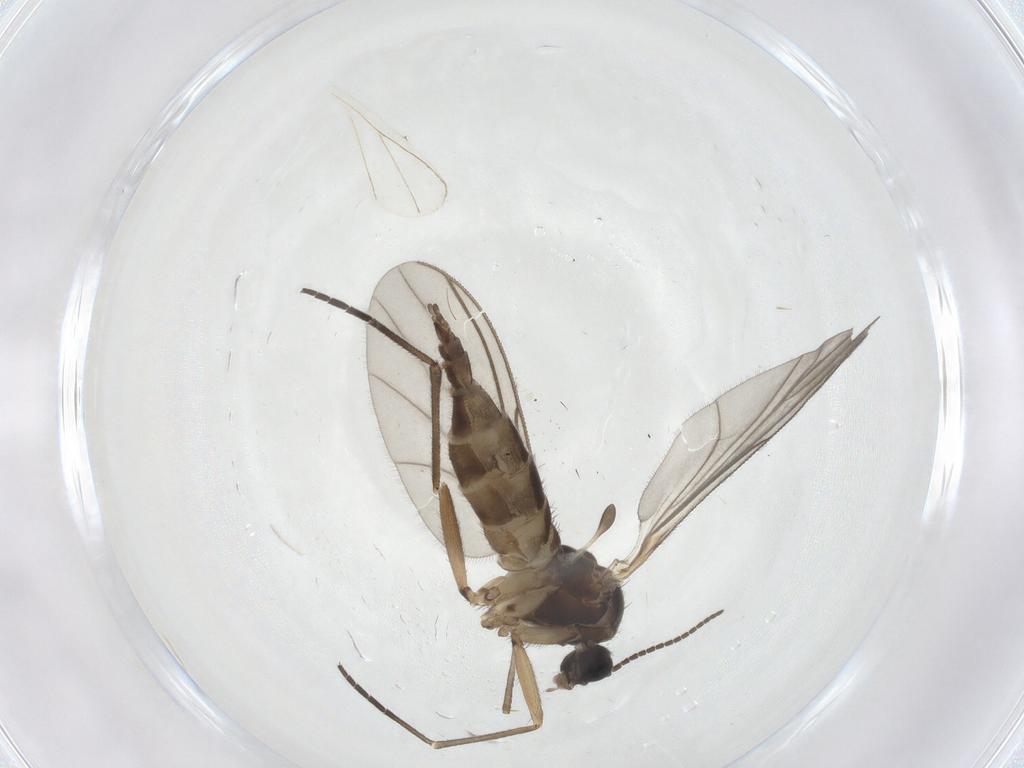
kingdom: Animalia
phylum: Arthropoda
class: Insecta
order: Diptera
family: Sciaridae
